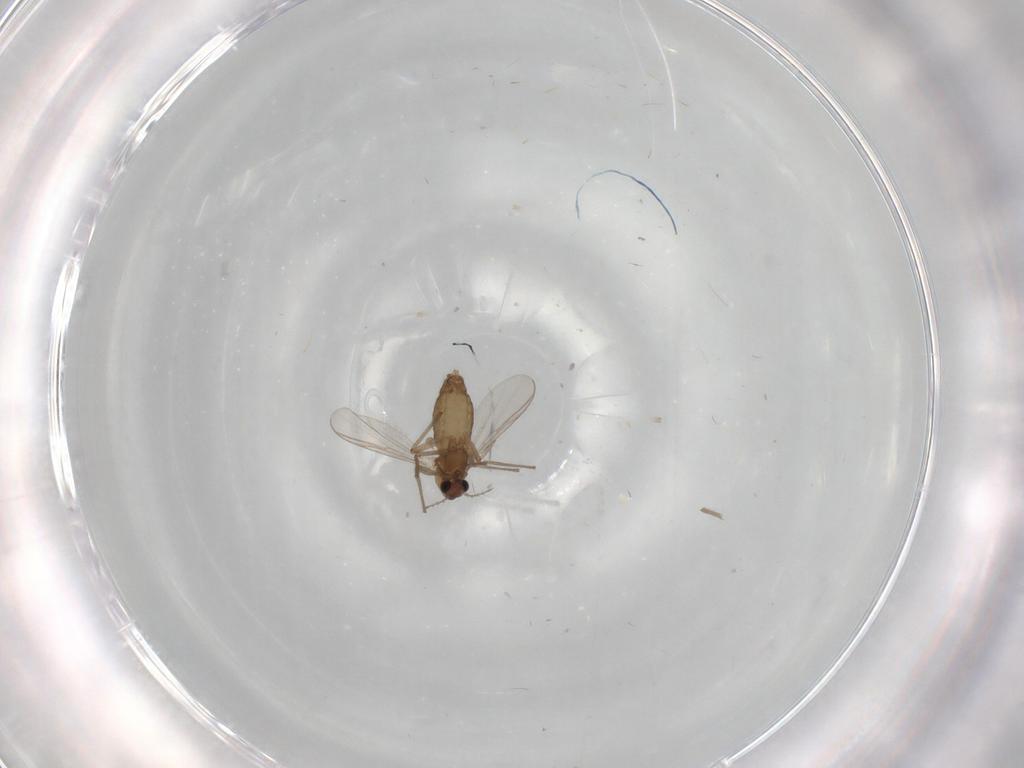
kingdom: Animalia
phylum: Arthropoda
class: Insecta
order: Diptera
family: Chironomidae
